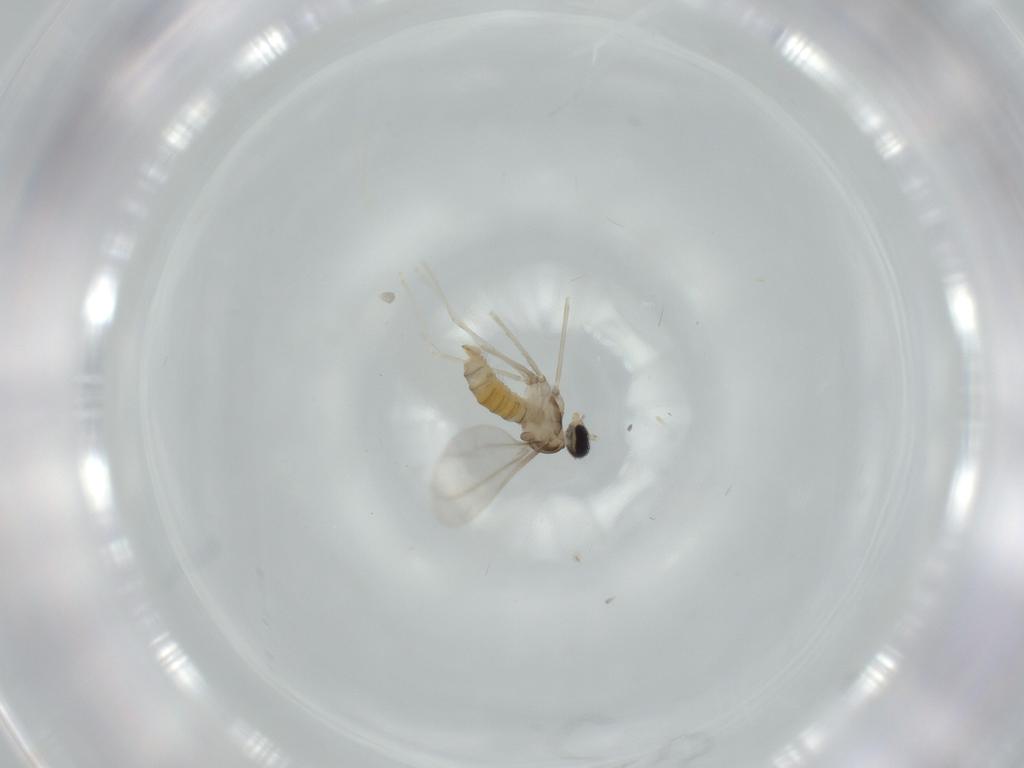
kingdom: Animalia
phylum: Arthropoda
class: Insecta
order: Diptera
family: Cecidomyiidae
